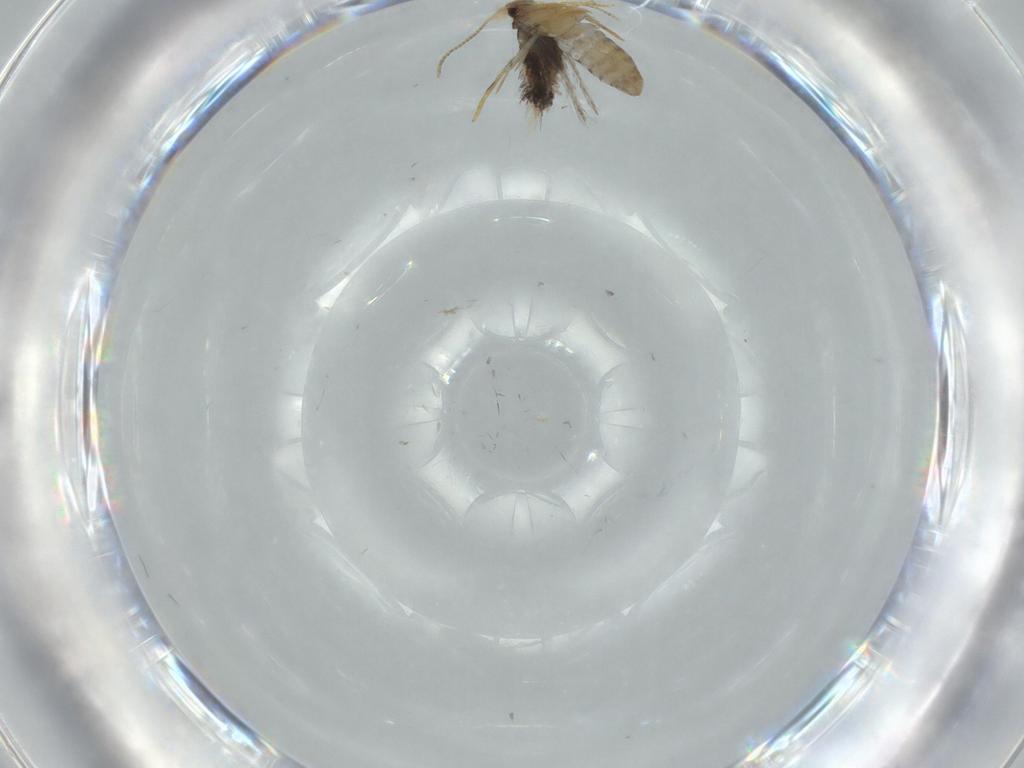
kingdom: Animalia
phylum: Arthropoda
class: Insecta
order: Lepidoptera
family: Nepticulidae
